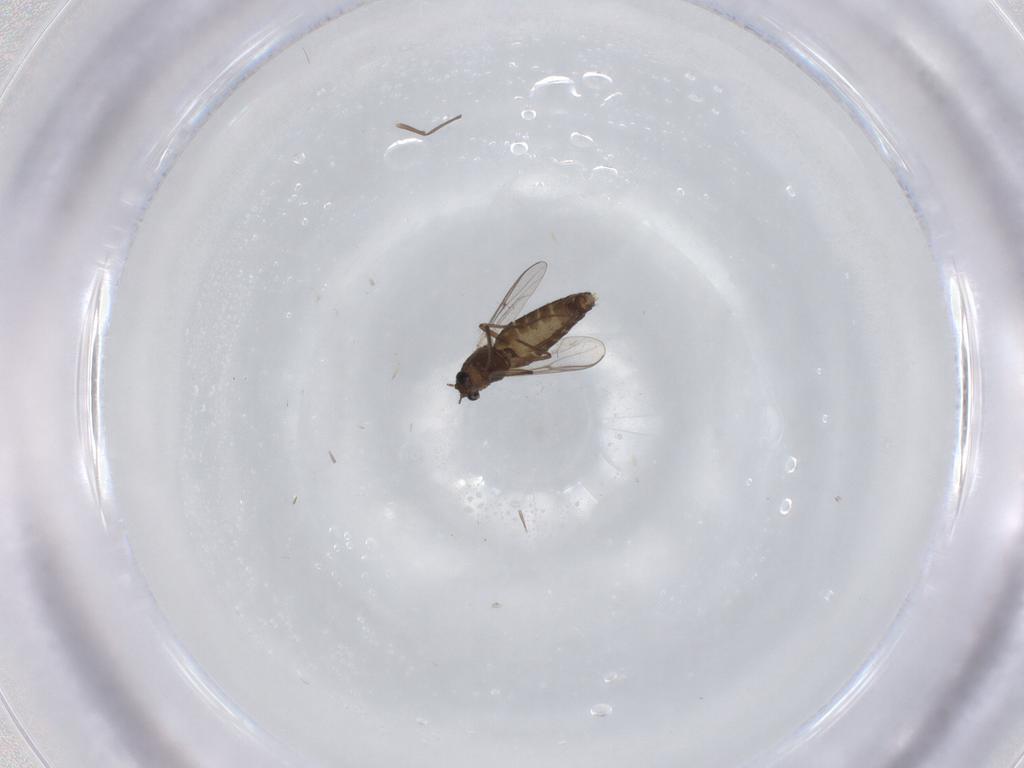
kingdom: Animalia
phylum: Arthropoda
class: Insecta
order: Diptera
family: Chironomidae
